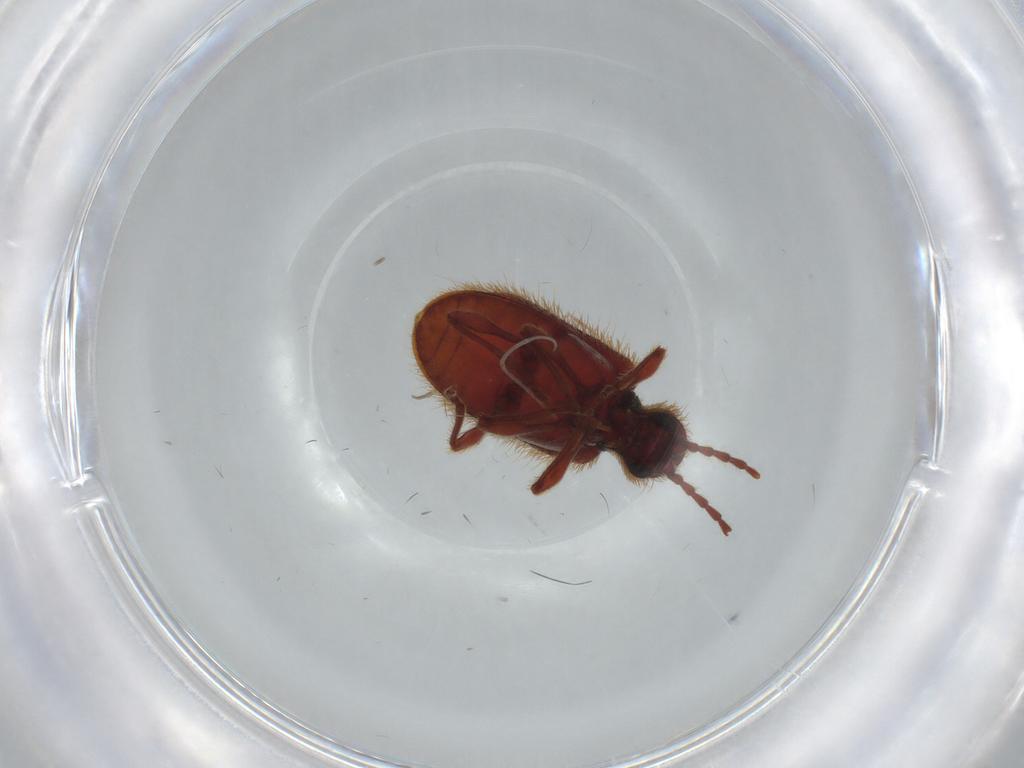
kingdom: Animalia
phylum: Arthropoda
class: Insecta
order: Coleoptera
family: Ptinidae
